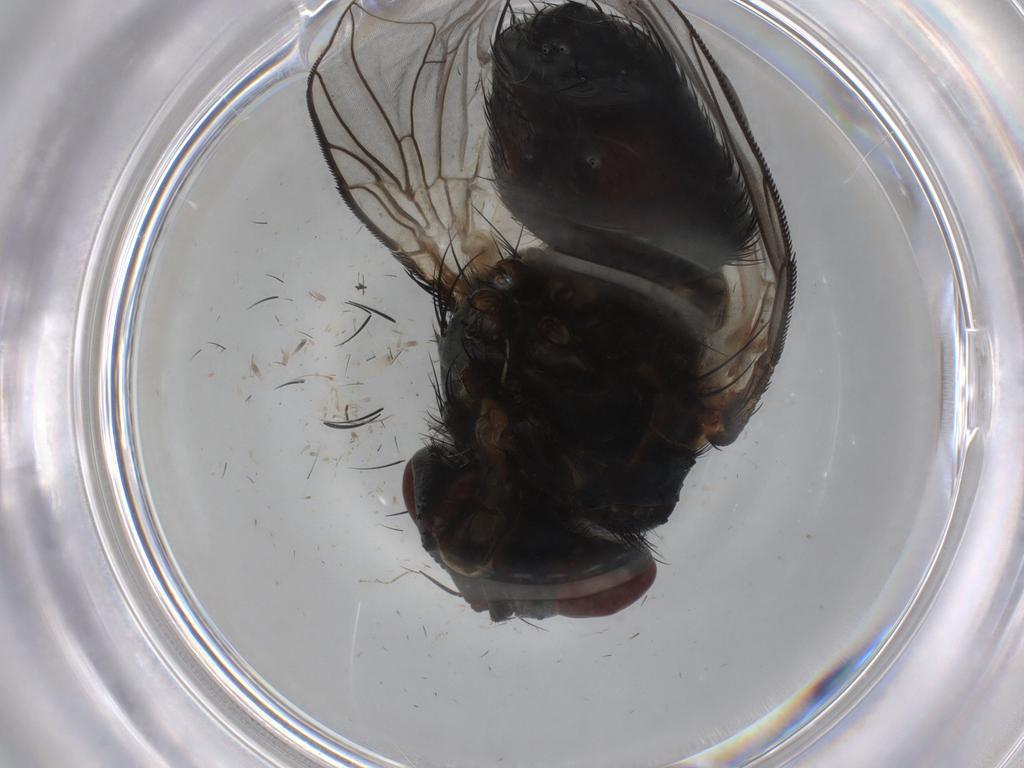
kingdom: Animalia
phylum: Arthropoda
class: Insecta
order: Diptera
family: Tachinidae
